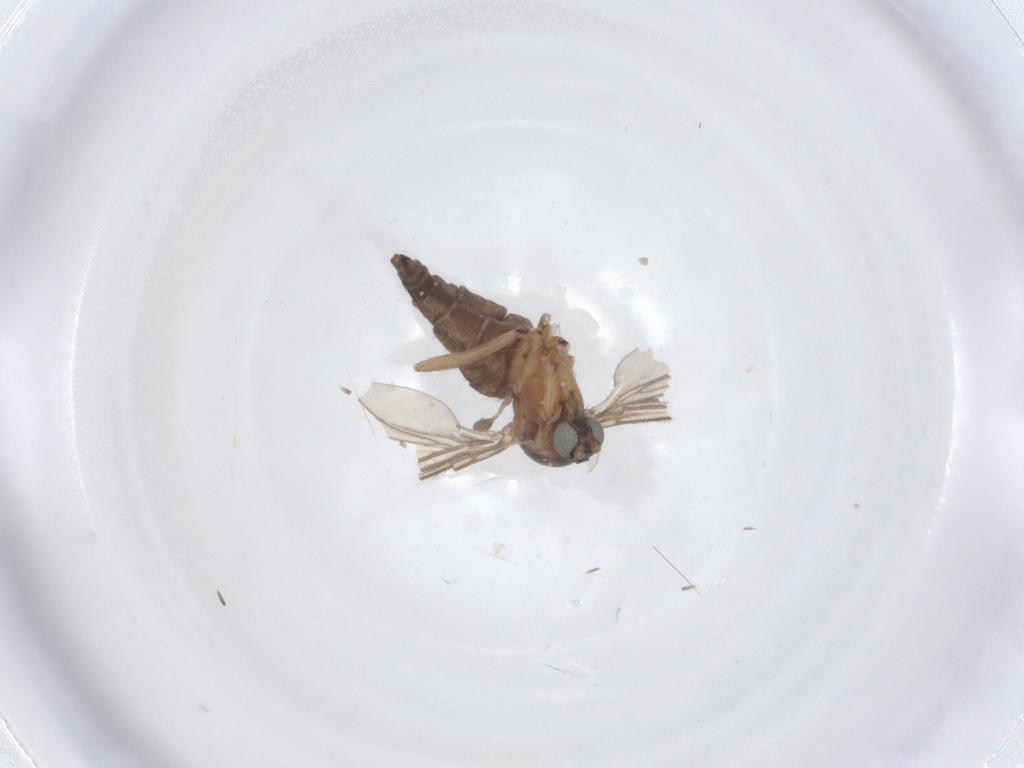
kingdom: Animalia
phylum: Arthropoda
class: Insecta
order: Diptera
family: Sciaridae
